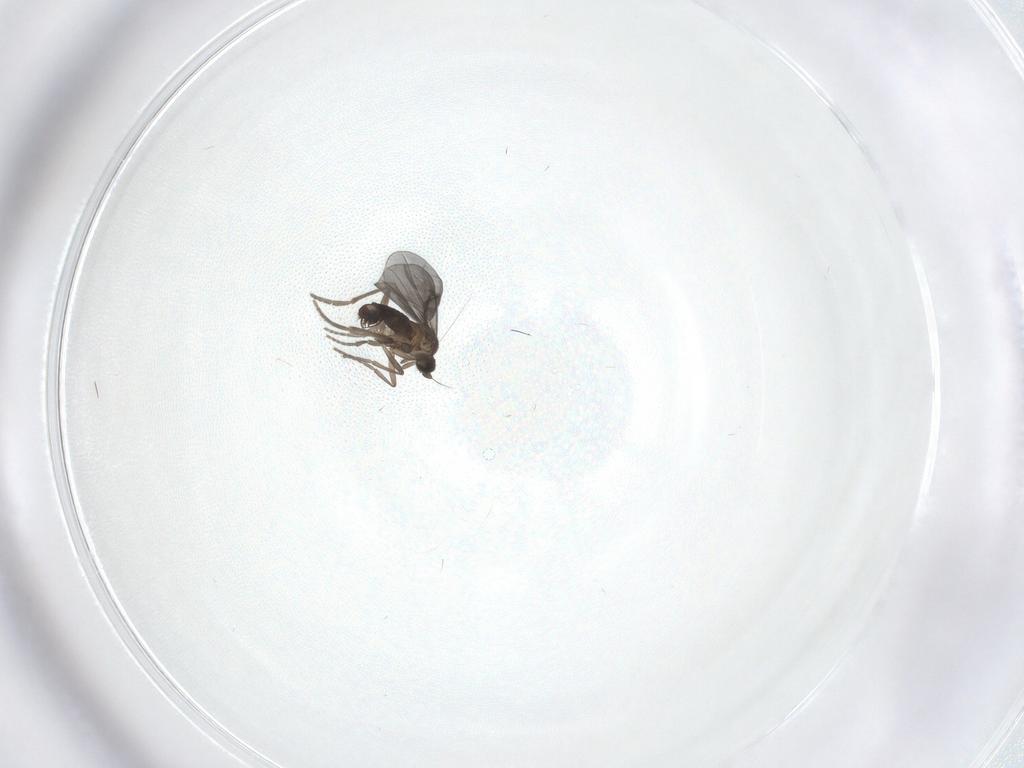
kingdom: Animalia
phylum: Arthropoda
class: Insecta
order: Diptera
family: Phoridae
